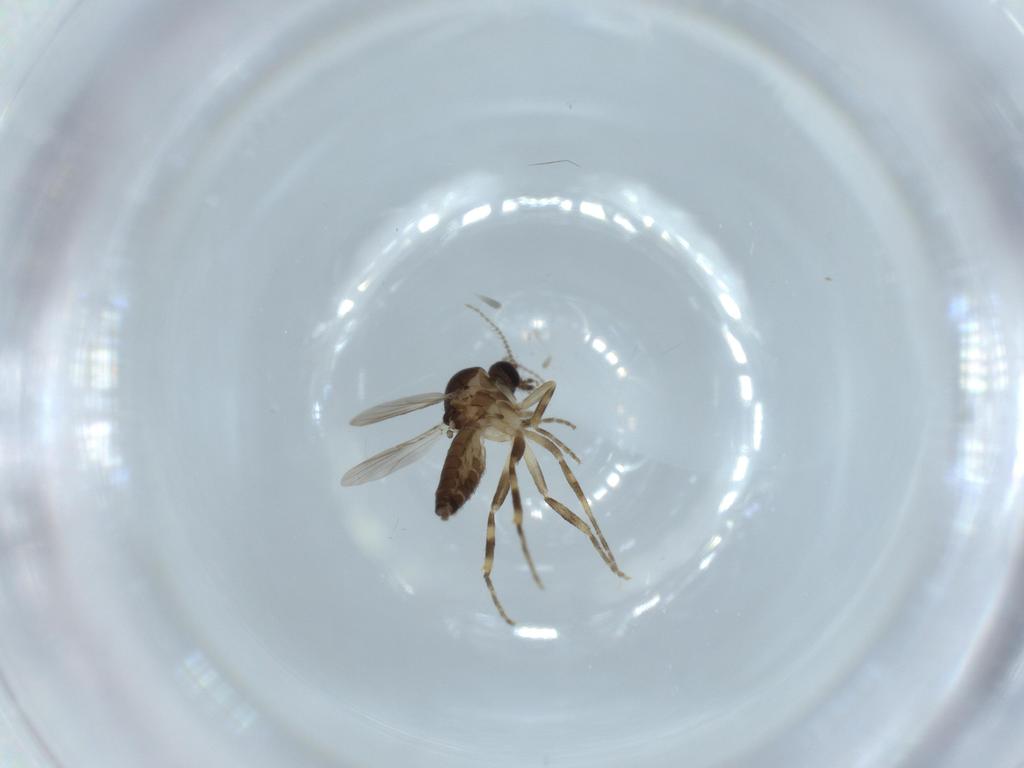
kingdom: Animalia
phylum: Arthropoda
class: Insecta
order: Diptera
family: Ceratopogonidae
